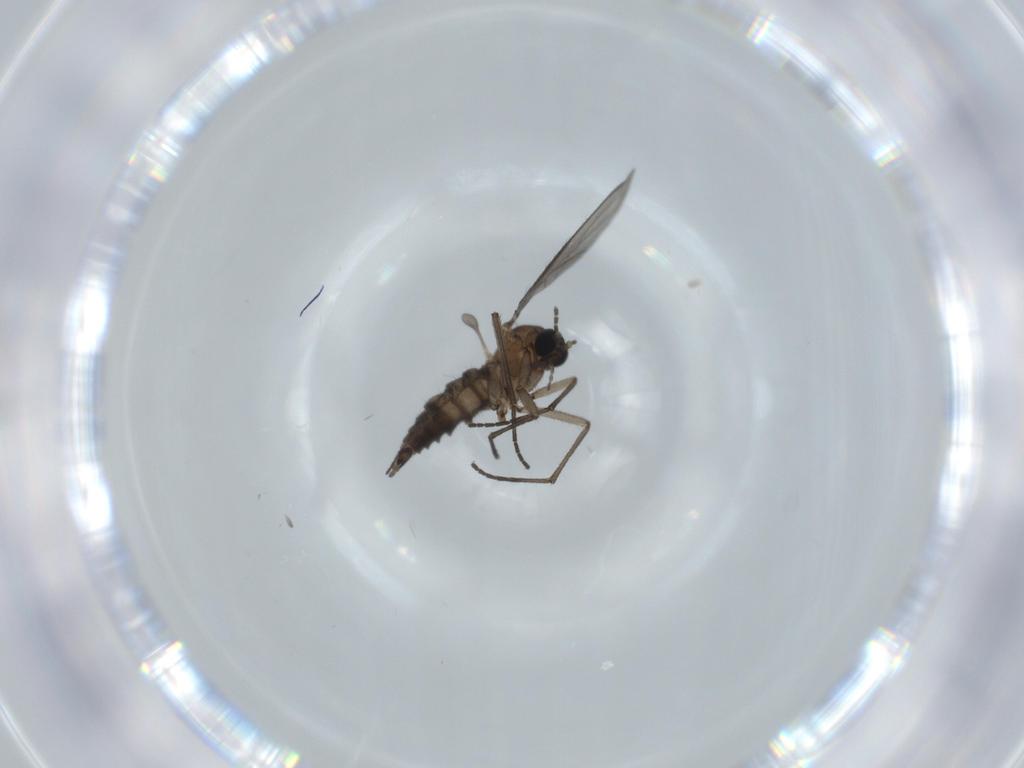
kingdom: Animalia
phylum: Arthropoda
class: Insecta
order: Diptera
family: Sciaridae
